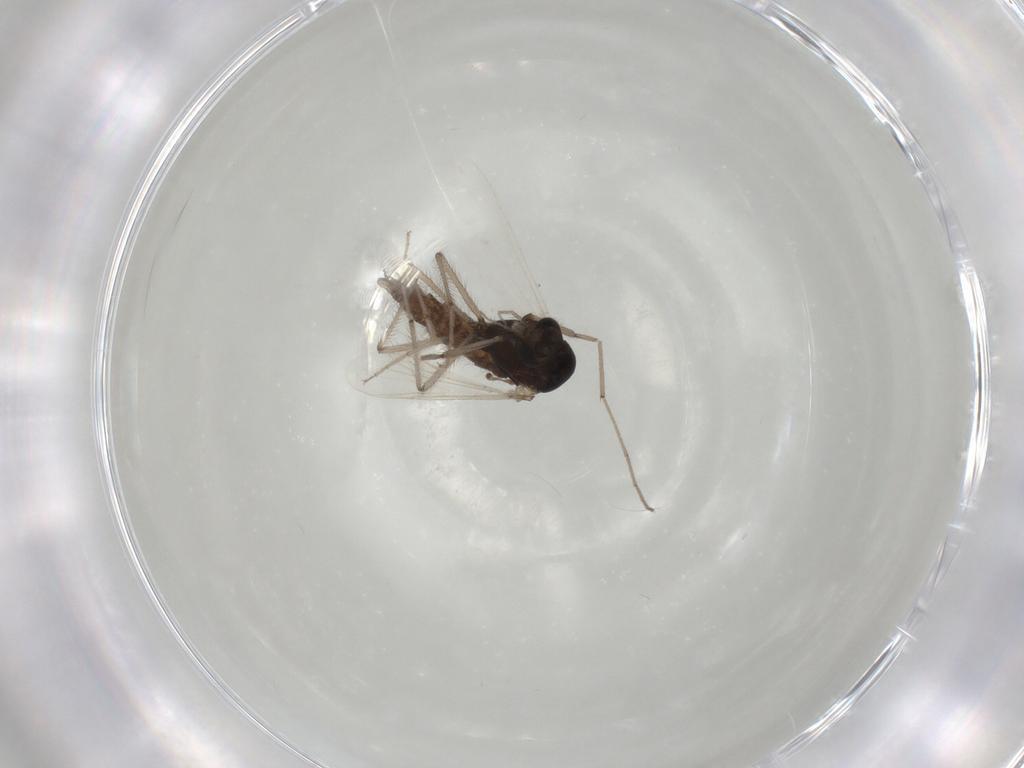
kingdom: Animalia
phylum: Arthropoda
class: Insecta
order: Diptera
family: Chironomidae
